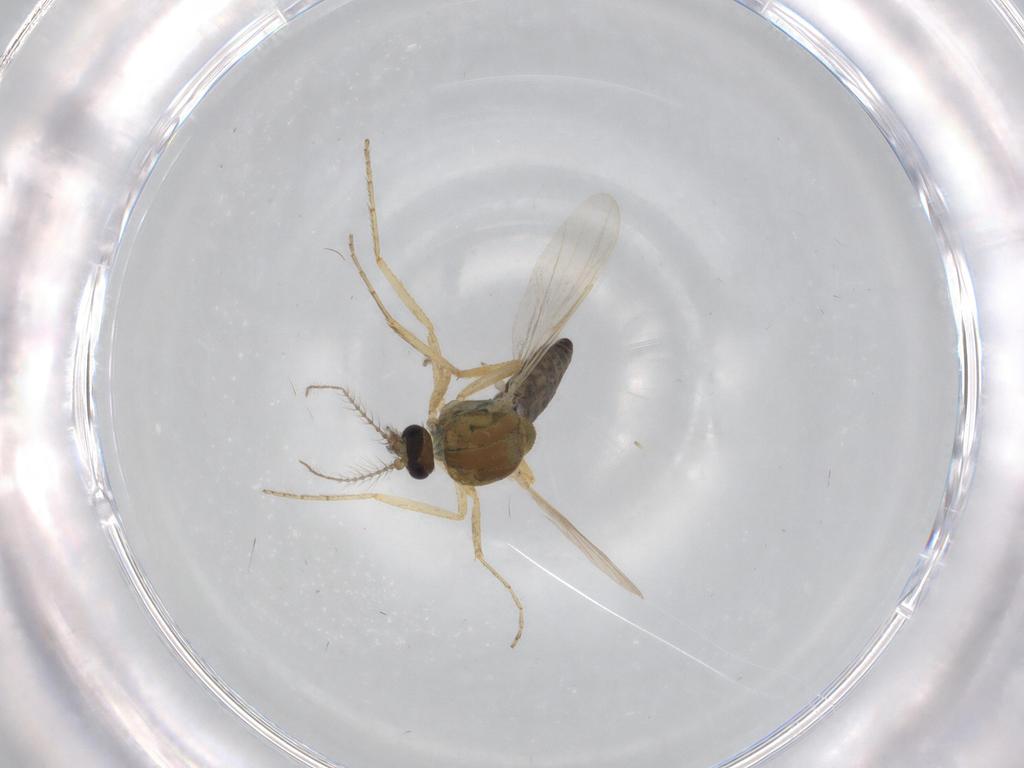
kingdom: Animalia
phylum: Arthropoda
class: Insecta
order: Diptera
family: Ceratopogonidae
